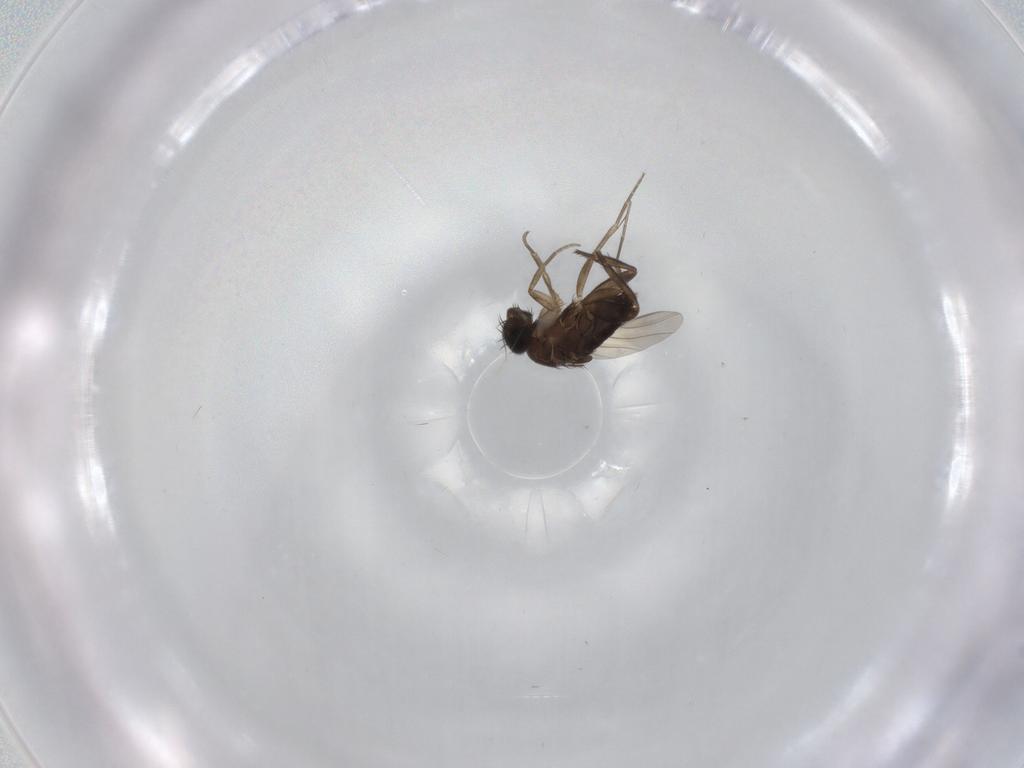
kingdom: Animalia
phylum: Arthropoda
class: Insecta
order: Diptera
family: Phoridae
